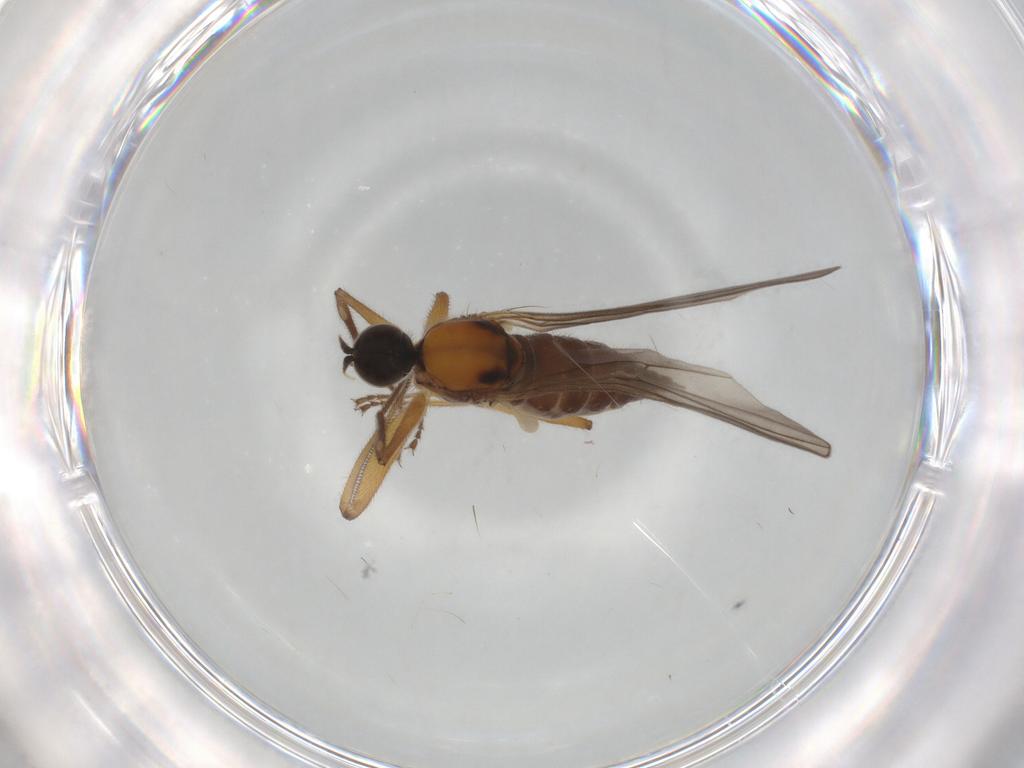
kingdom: Animalia
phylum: Arthropoda
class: Insecta
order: Diptera
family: Hybotidae
